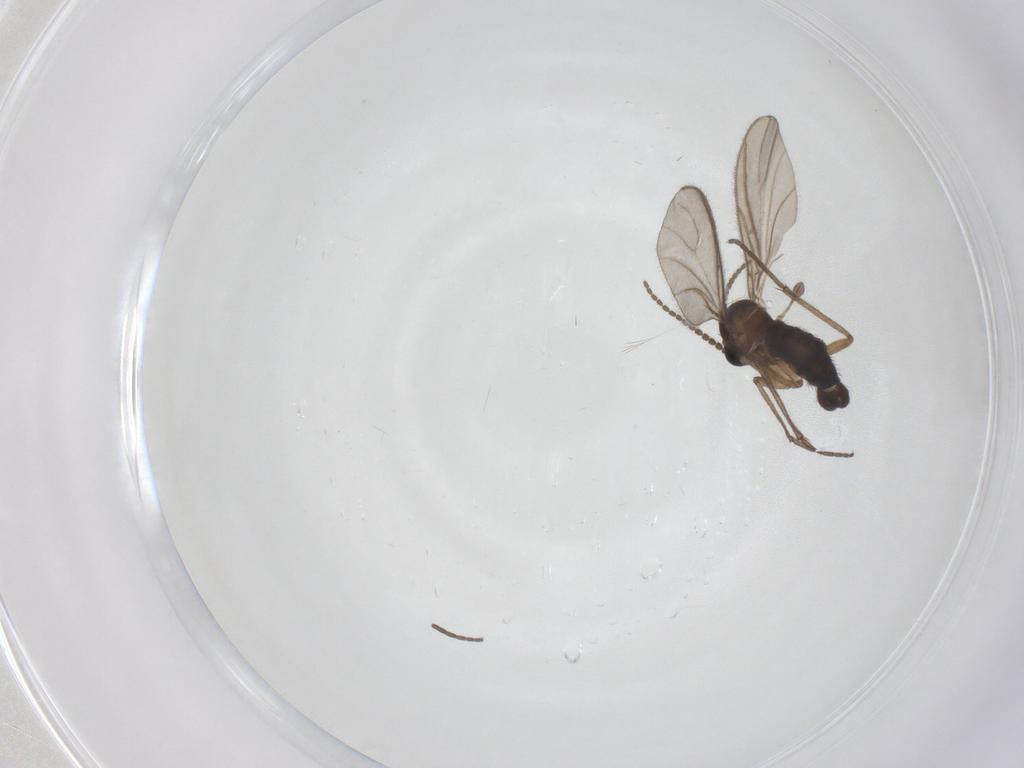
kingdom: Animalia
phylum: Arthropoda
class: Insecta
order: Diptera
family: Sciaridae
